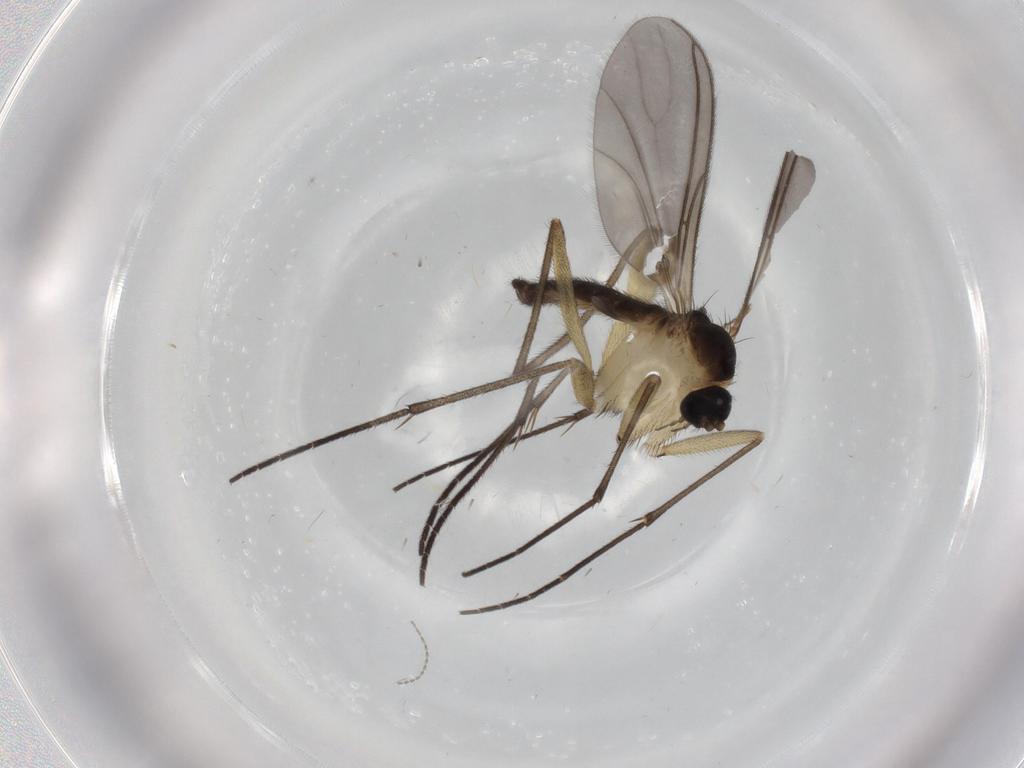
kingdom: Animalia
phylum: Arthropoda
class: Insecta
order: Diptera
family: Cecidomyiidae
